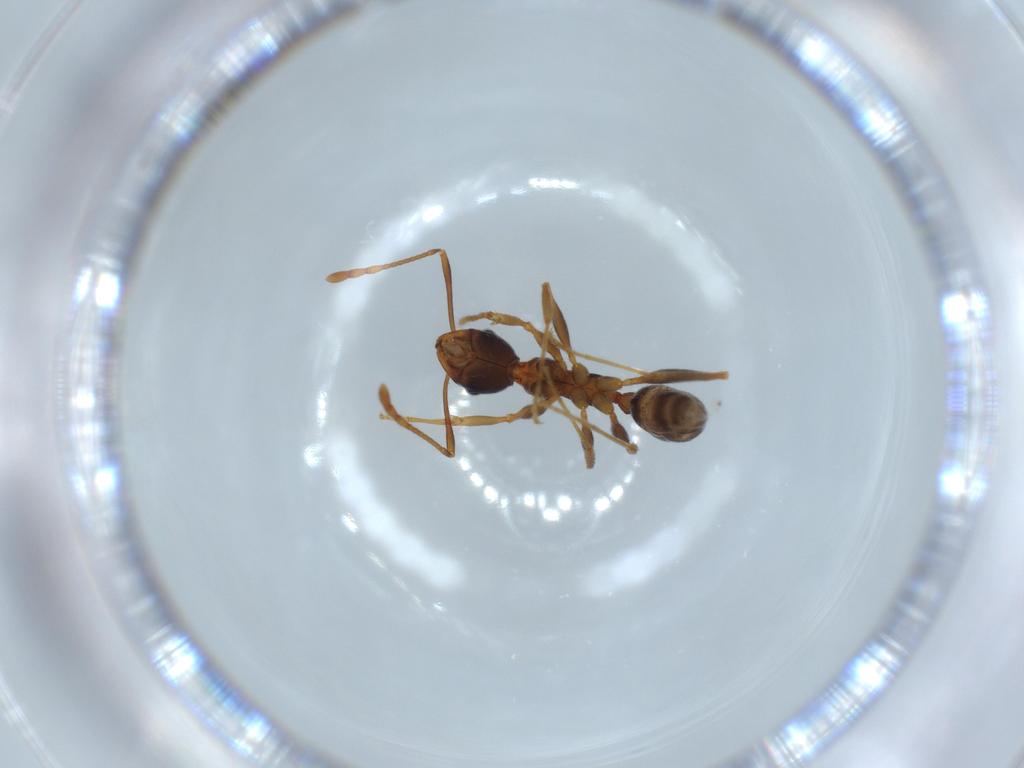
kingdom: Animalia
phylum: Arthropoda
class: Insecta
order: Hymenoptera
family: Formicidae
